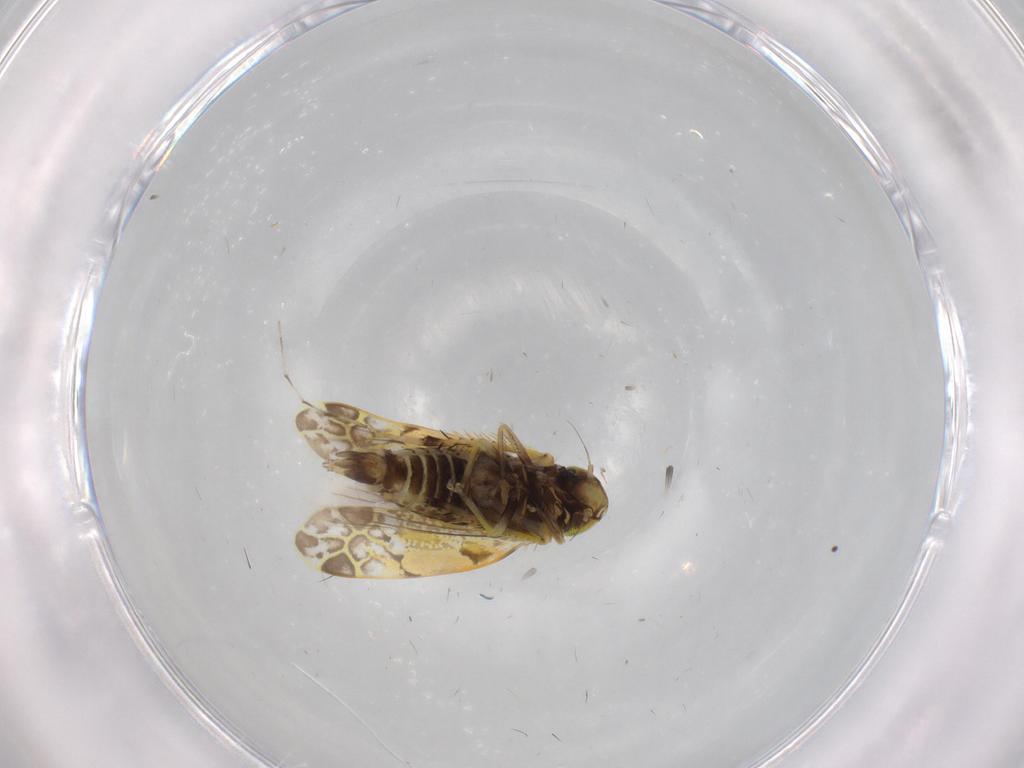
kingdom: Animalia
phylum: Arthropoda
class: Insecta
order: Hemiptera
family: Cicadellidae
